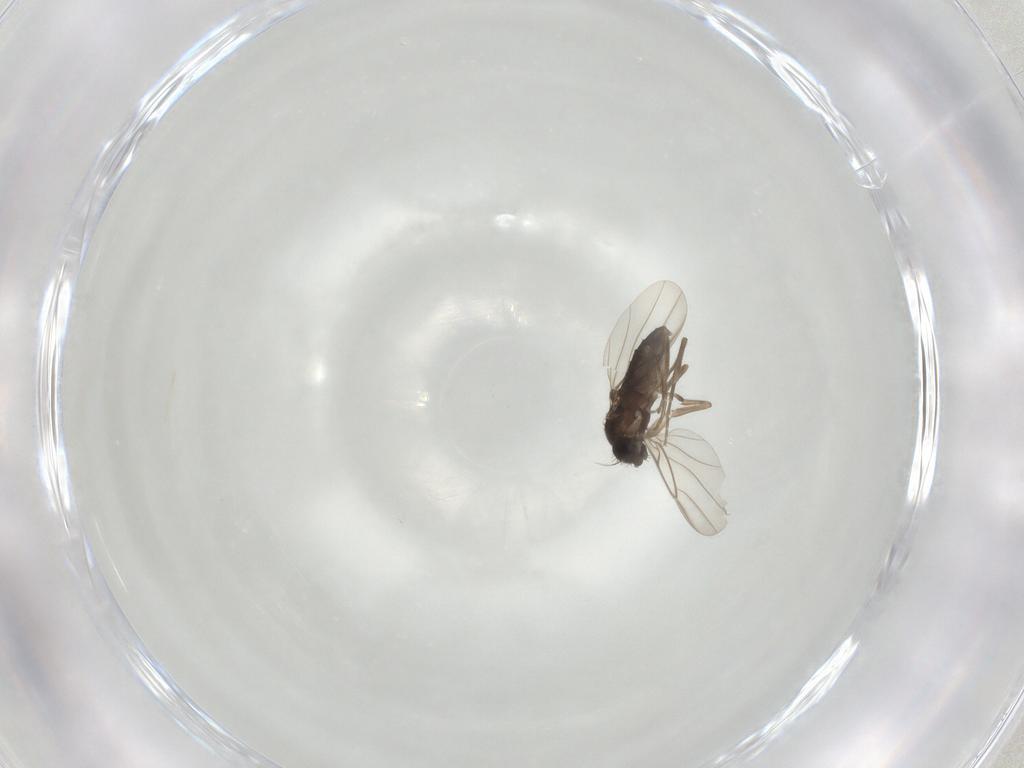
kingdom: Animalia
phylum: Arthropoda
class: Insecta
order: Diptera
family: Phoridae
